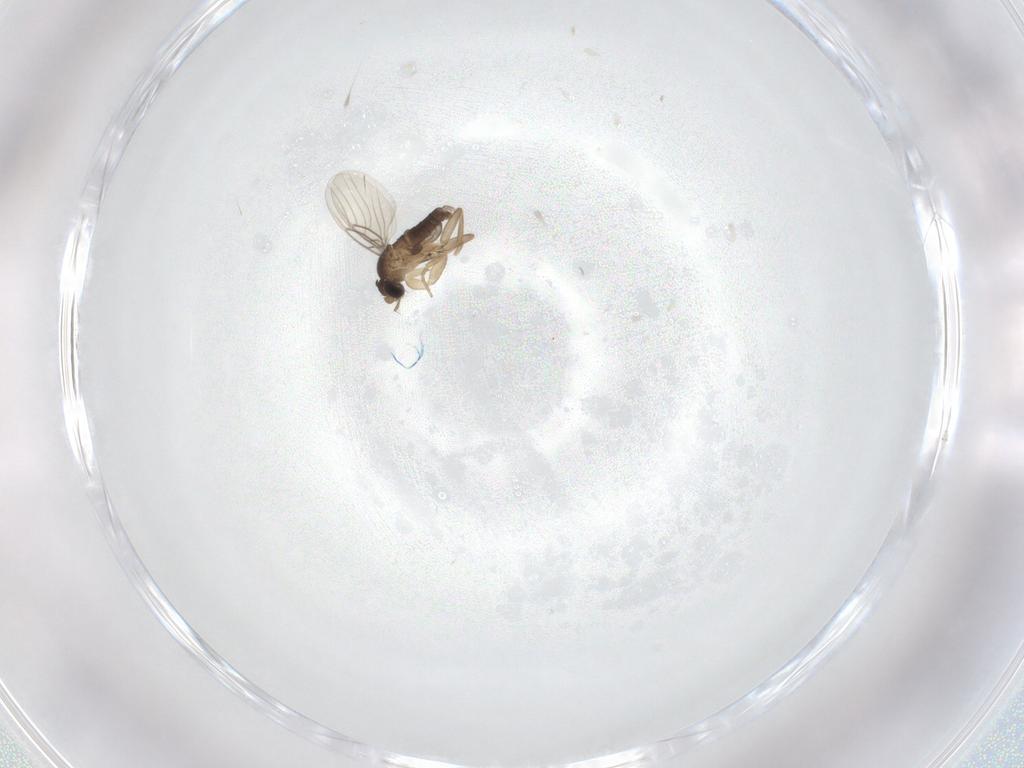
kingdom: Animalia
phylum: Arthropoda
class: Insecta
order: Diptera
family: Phoridae
